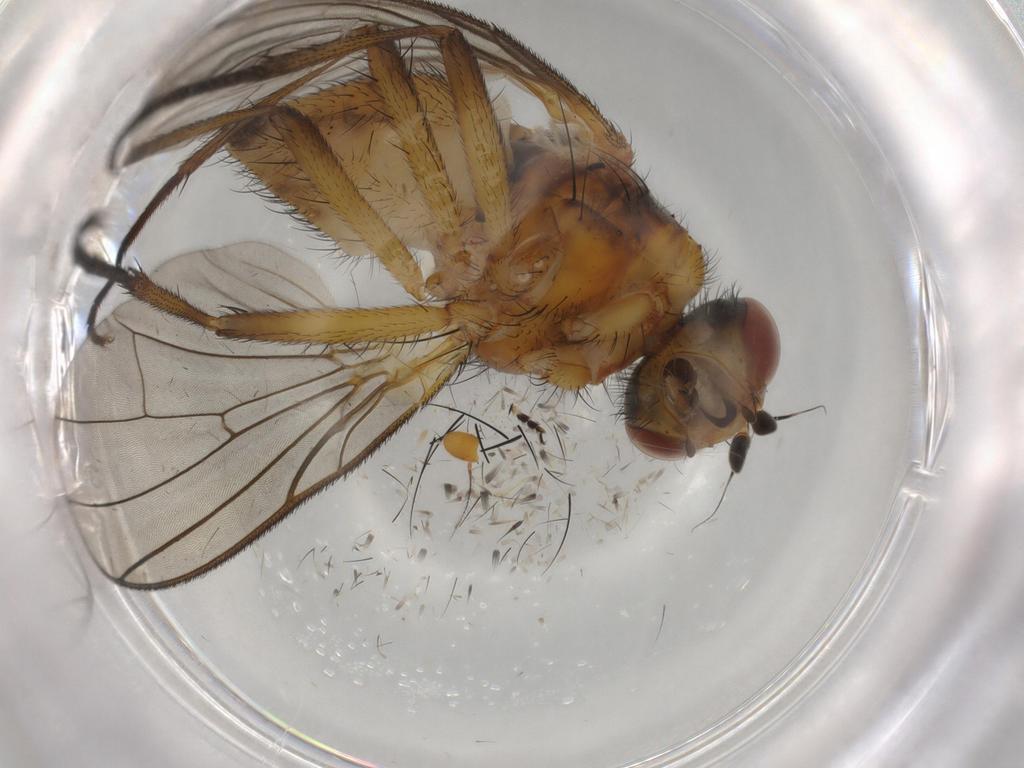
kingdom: Animalia
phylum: Arthropoda
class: Insecta
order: Diptera
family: Anthomyiidae
